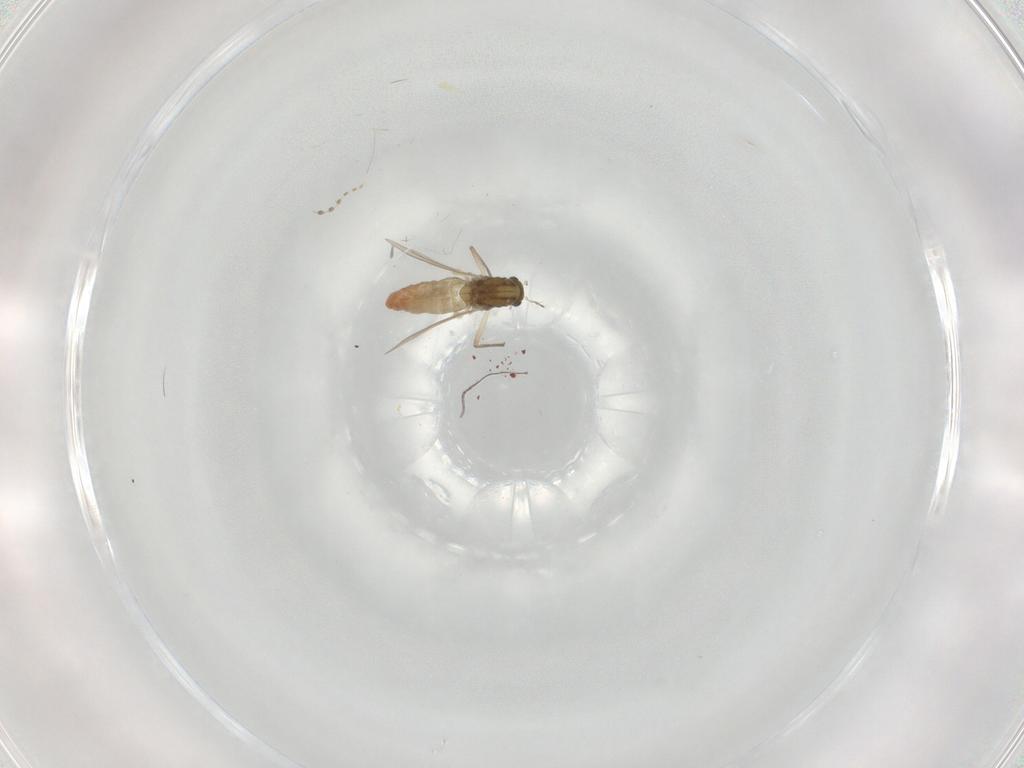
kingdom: Animalia
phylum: Arthropoda
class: Insecta
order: Diptera
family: Chironomidae
